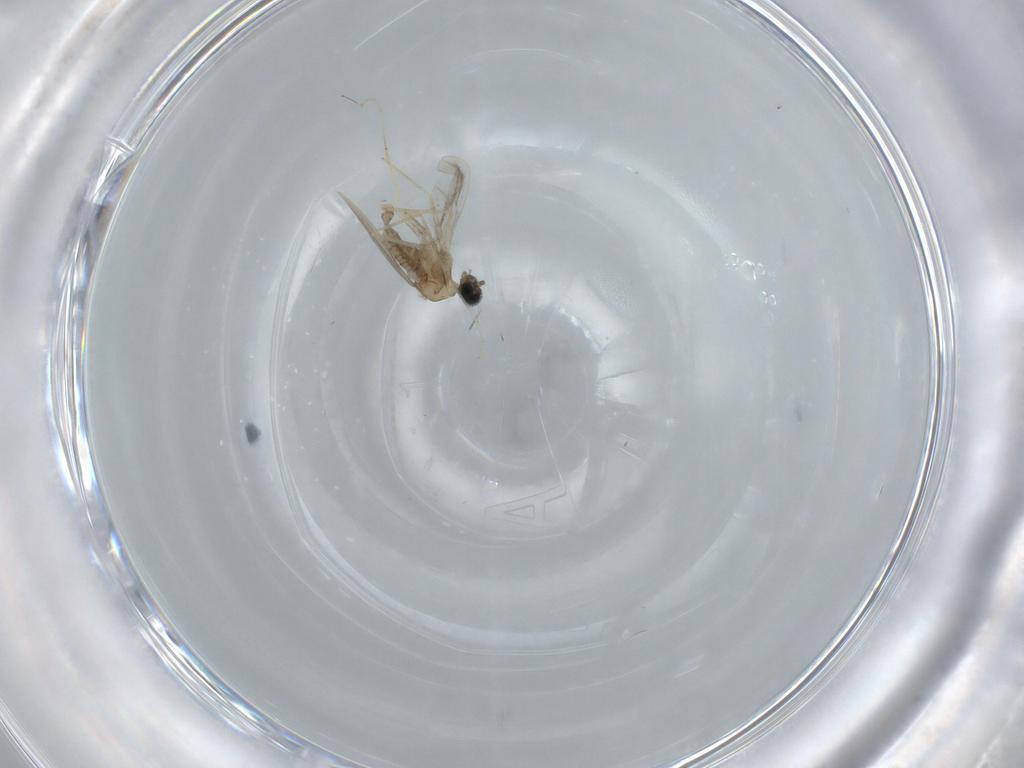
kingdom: Animalia
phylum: Arthropoda
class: Insecta
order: Diptera
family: Cecidomyiidae
